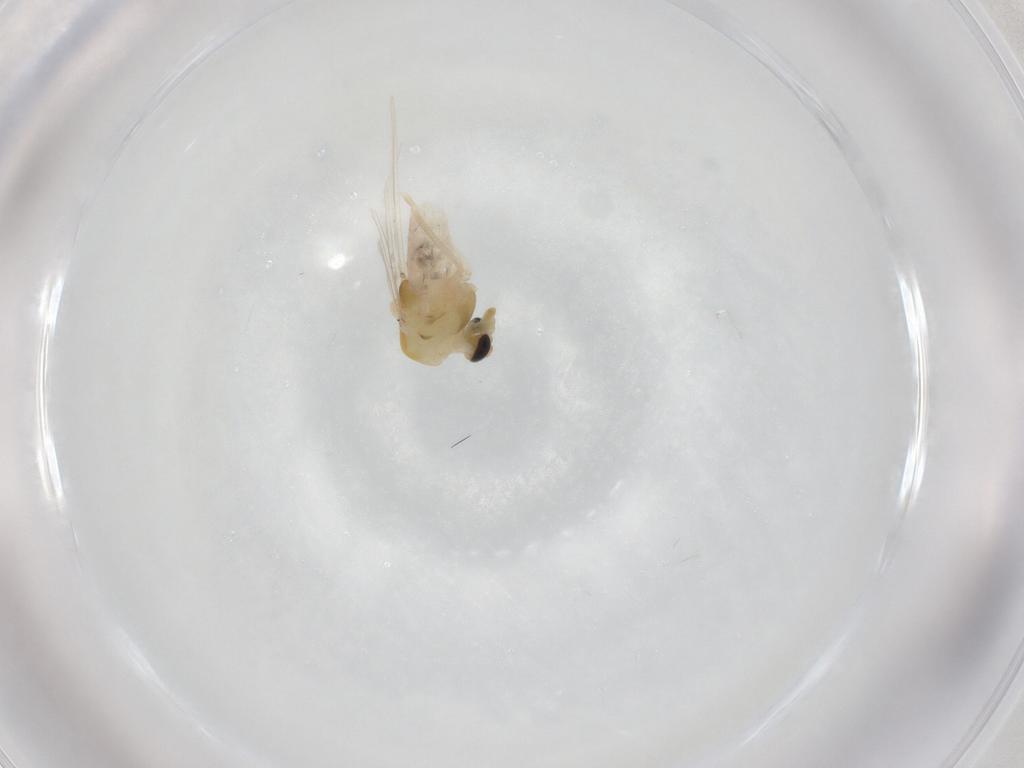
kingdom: Animalia
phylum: Arthropoda
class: Insecta
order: Diptera
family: Chironomidae
